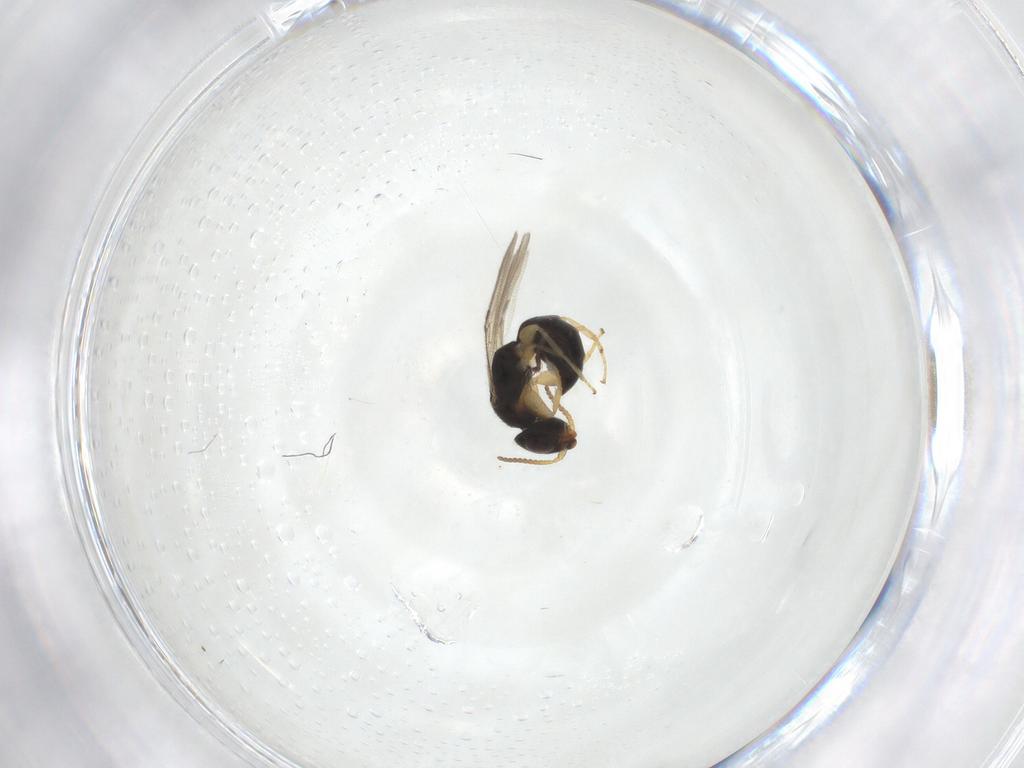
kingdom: Animalia
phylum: Arthropoda
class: Insecta
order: Hymenoptera
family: Bethylidae
